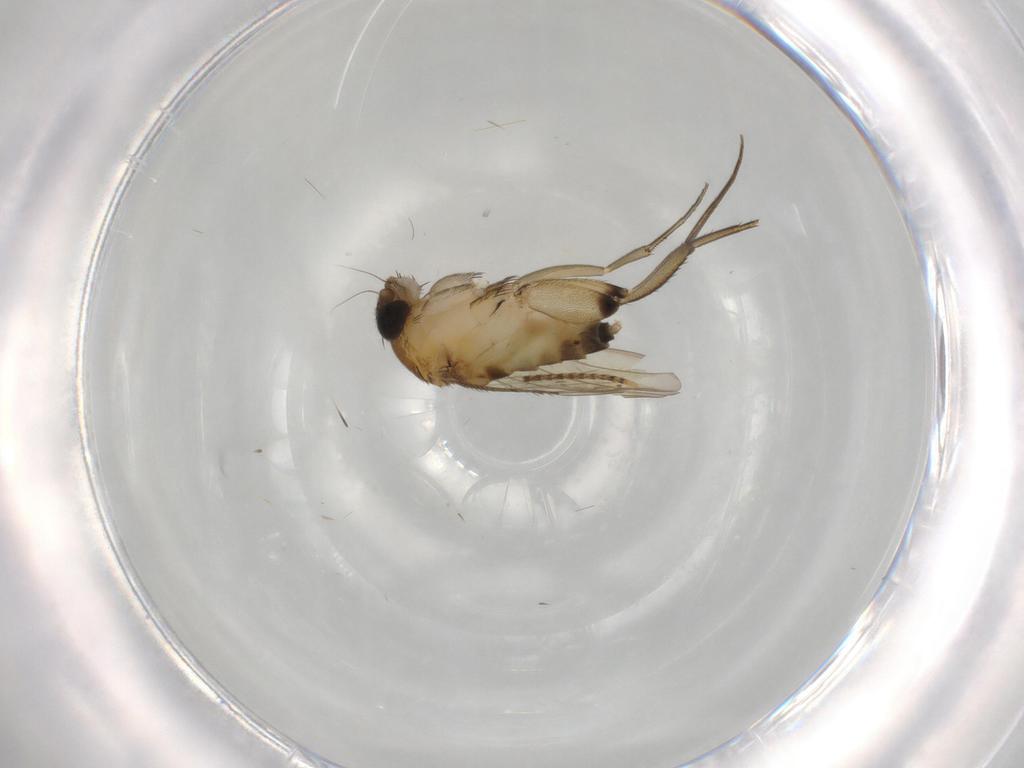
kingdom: Animalia
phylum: Arthropoda
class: Insecta
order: Diptera
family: Phoridae
